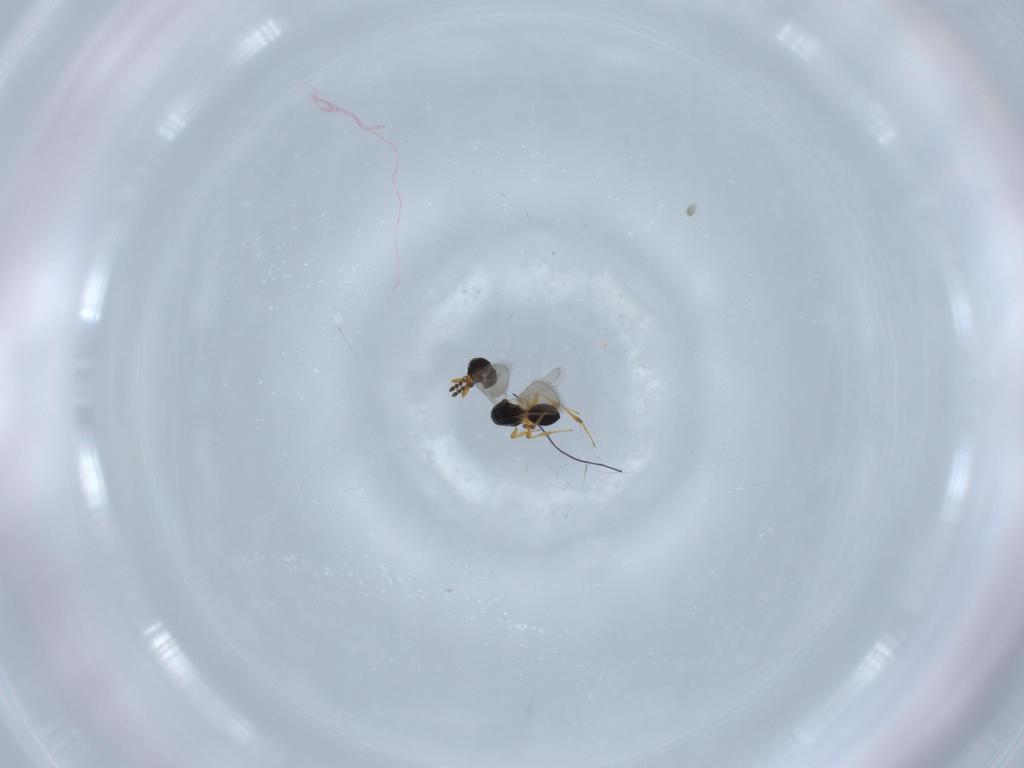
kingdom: Animalia
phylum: Arthropoda
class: Insecta
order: Hymenoptera
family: Platygastridae
